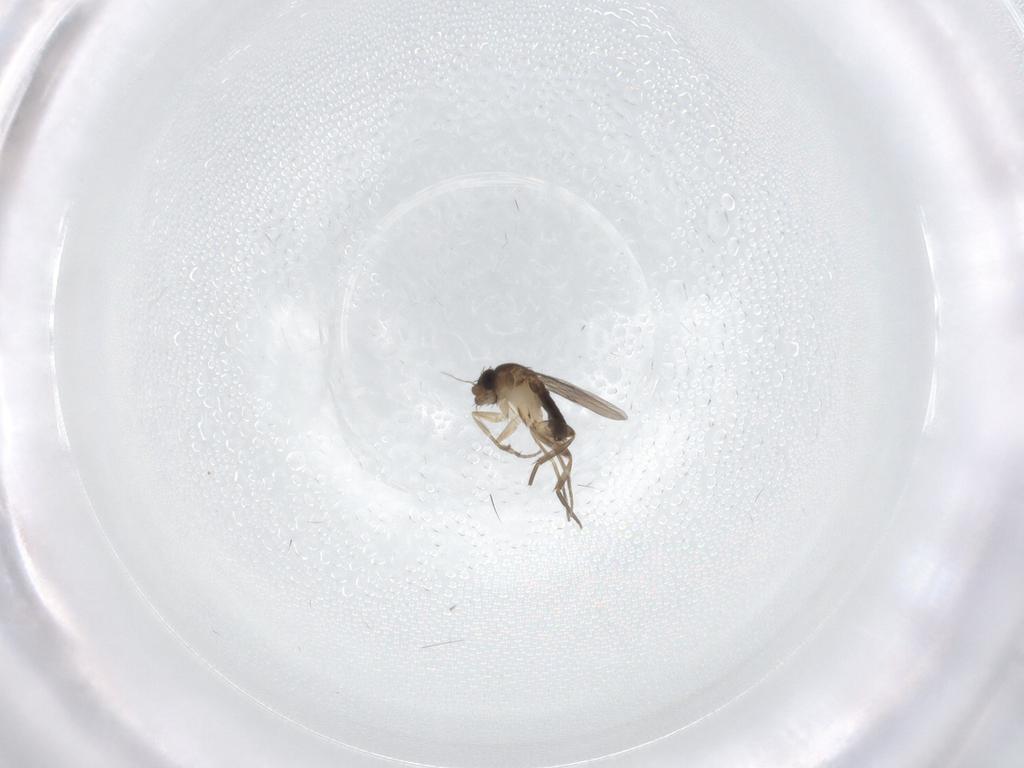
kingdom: Animalia
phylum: Arthropoda
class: Insecta
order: Diptera
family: Phoridae
